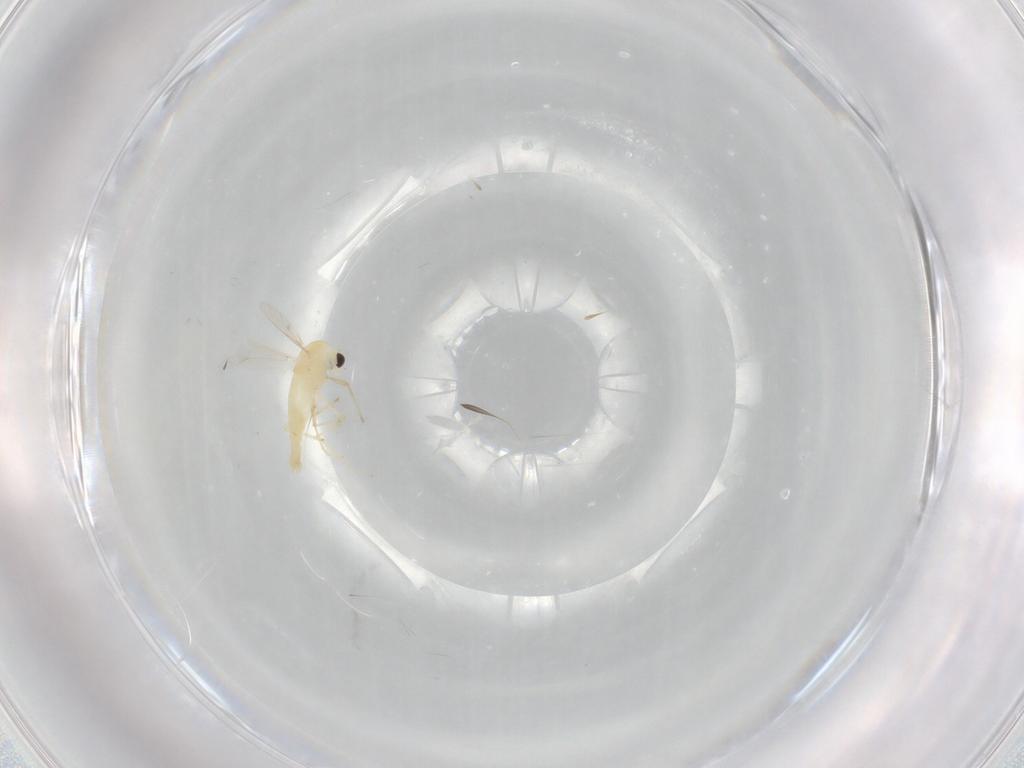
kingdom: Animalia
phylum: Arthropoda
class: Insecta
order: Diptera
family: Chironomidae
